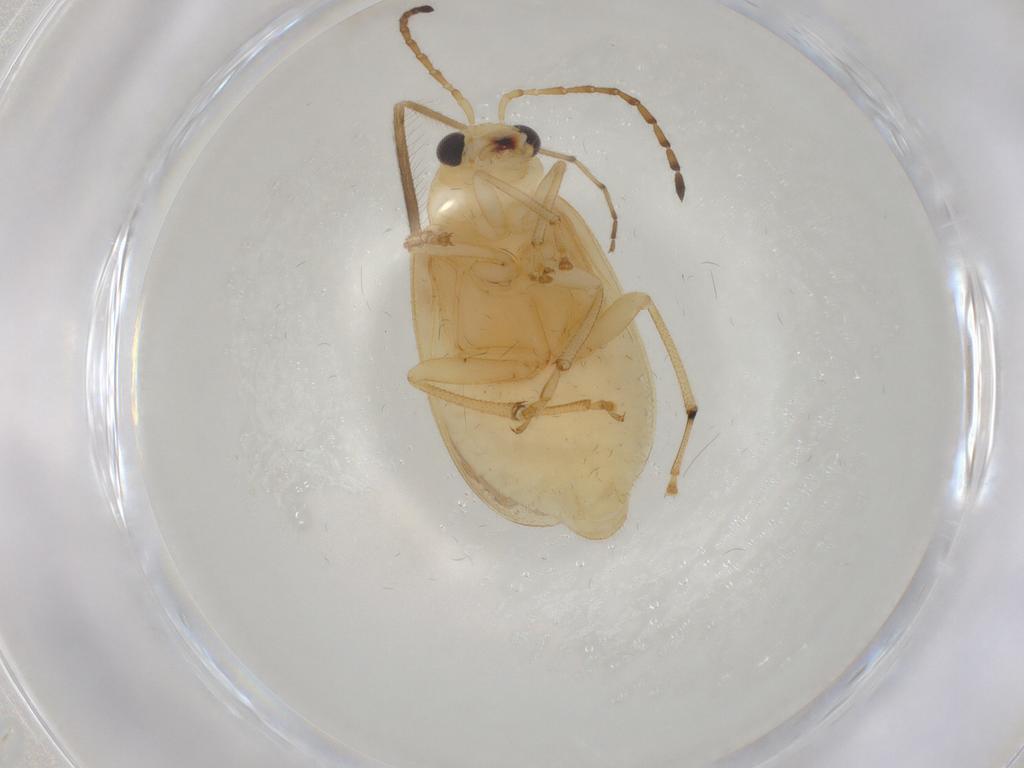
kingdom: Animalia
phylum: Arthropoda
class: Insecta
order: Coleoptera
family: Chrysomelidae
